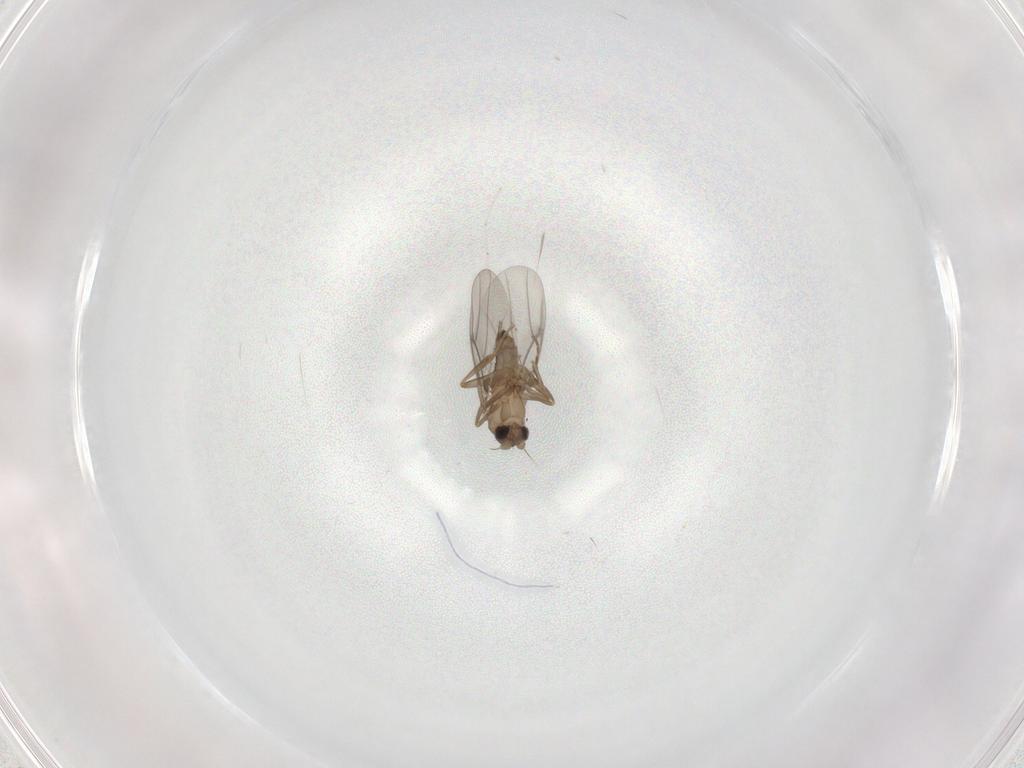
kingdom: Animalia
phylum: Arthropoda
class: Insecta
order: Diptera
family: Cecidomyiidae
